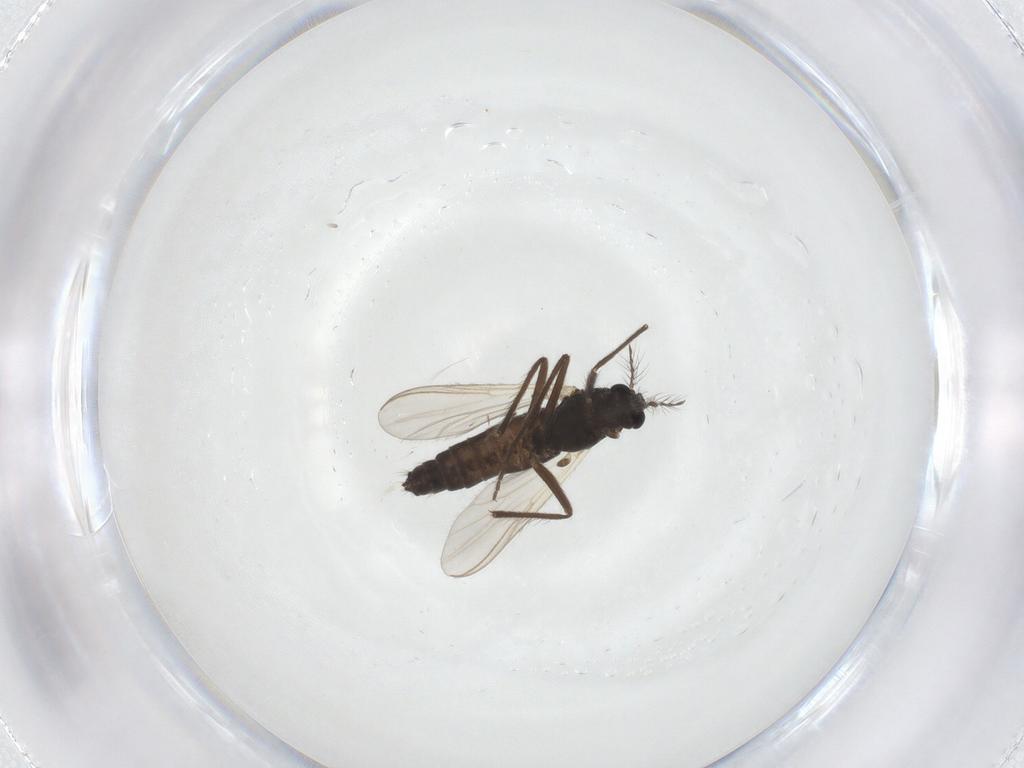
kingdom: Animalia
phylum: Arthropoda
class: Insecta
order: Diptera
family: Chironomidae
